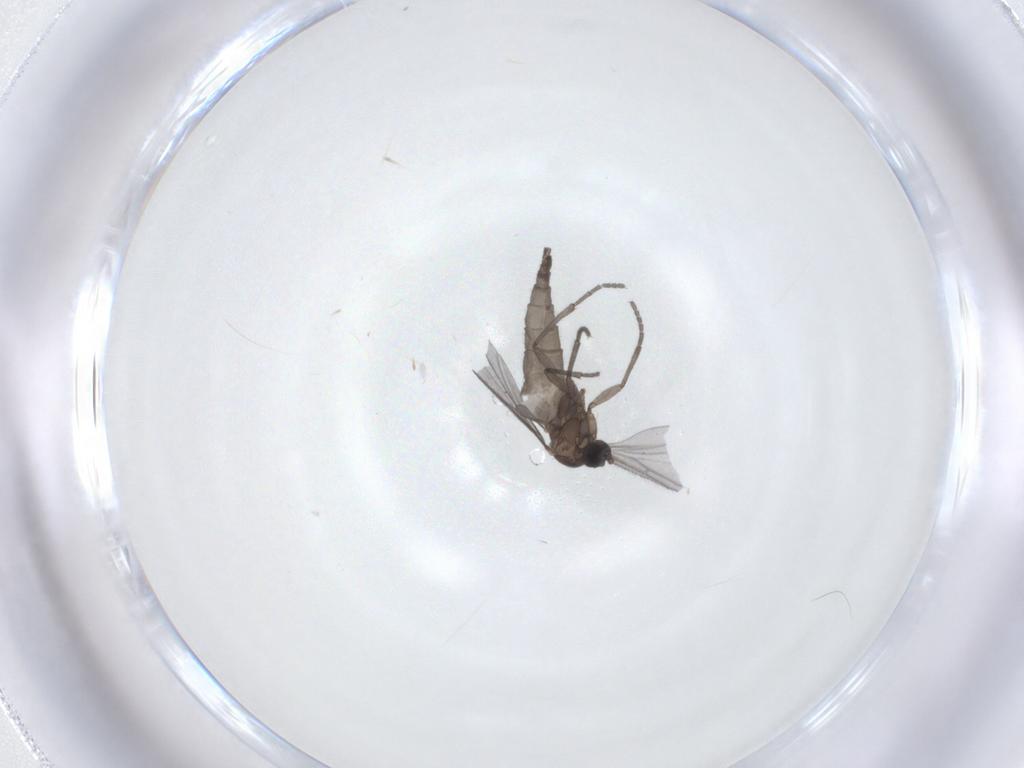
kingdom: Animalia
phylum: Arthropoda
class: Insecta
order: Diptera
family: Sciaridae
